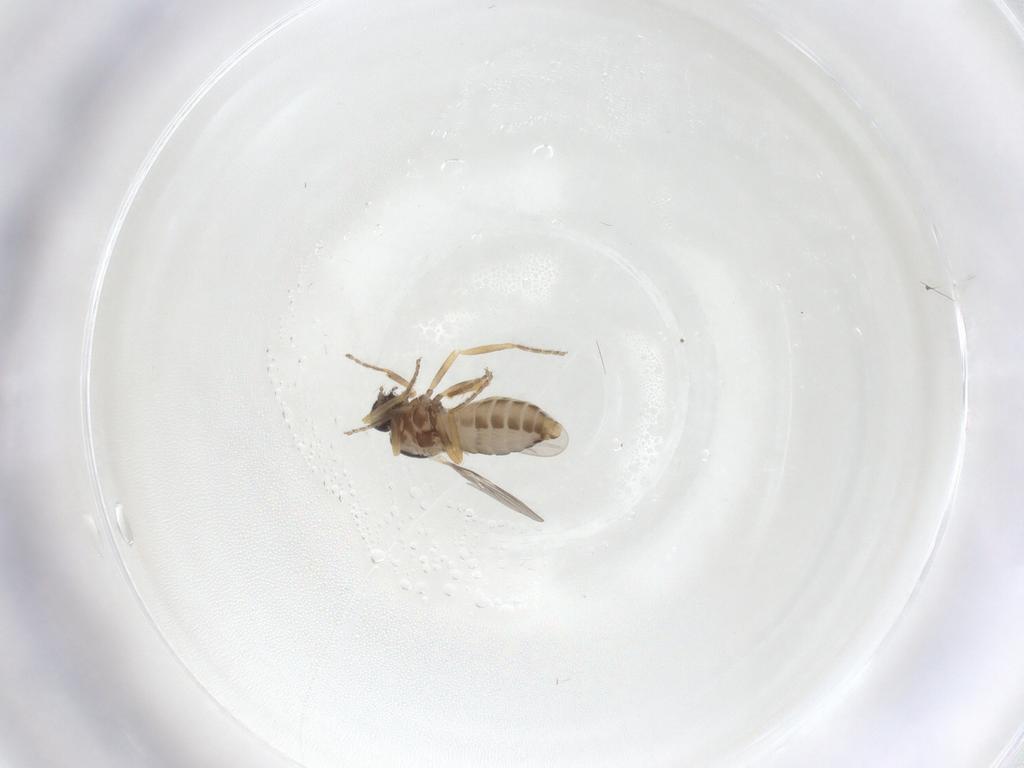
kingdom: Animalia
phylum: Arthropoda
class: Insecta
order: Diptera
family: Ceratopogonidae
